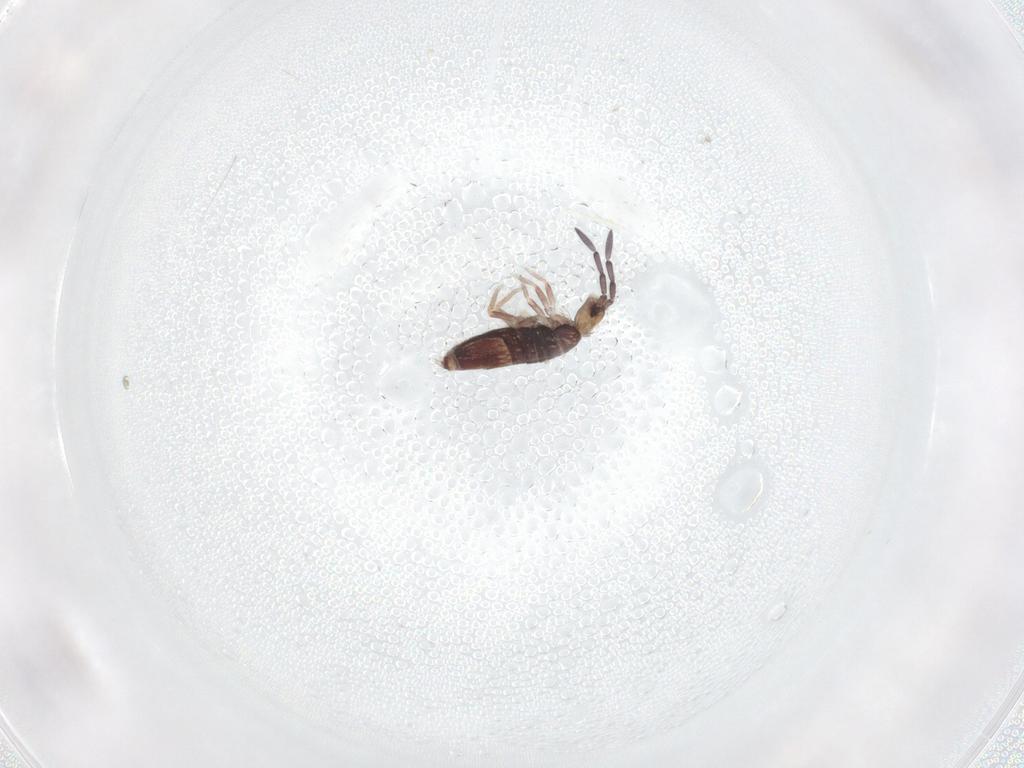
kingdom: Animalia
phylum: Arthropoda
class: Collembola
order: Entomobryomorpha
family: Entomobryidae
